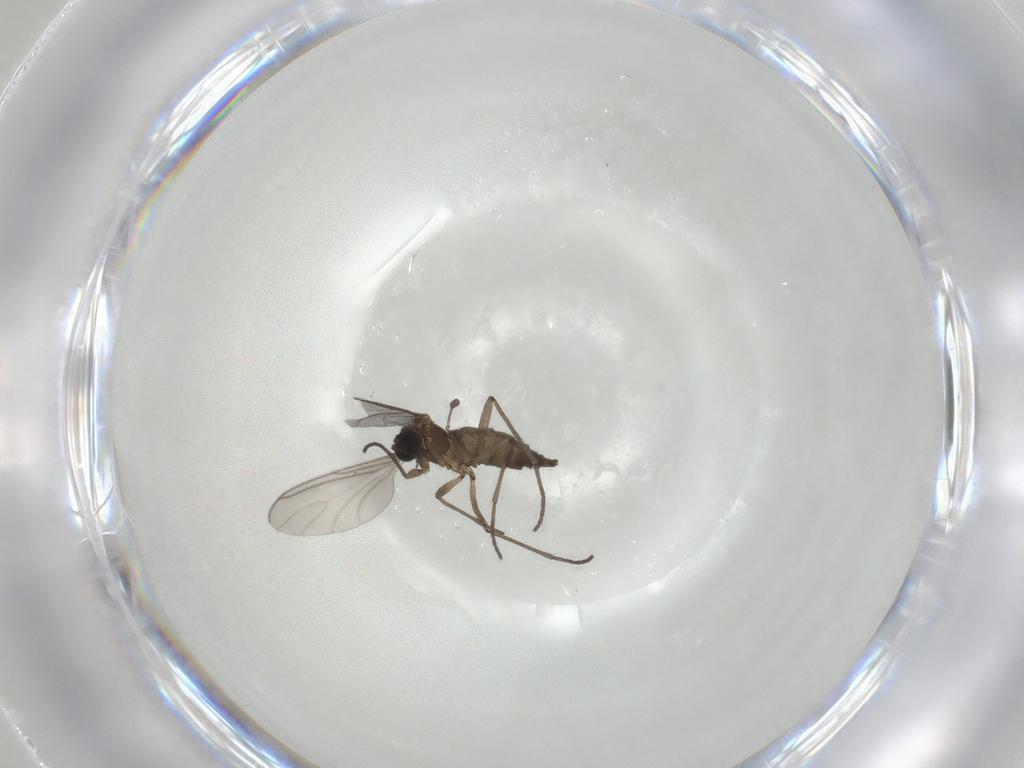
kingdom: Animalia
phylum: Arthropoda
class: Insecta
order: Diptera
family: Sciaridae
